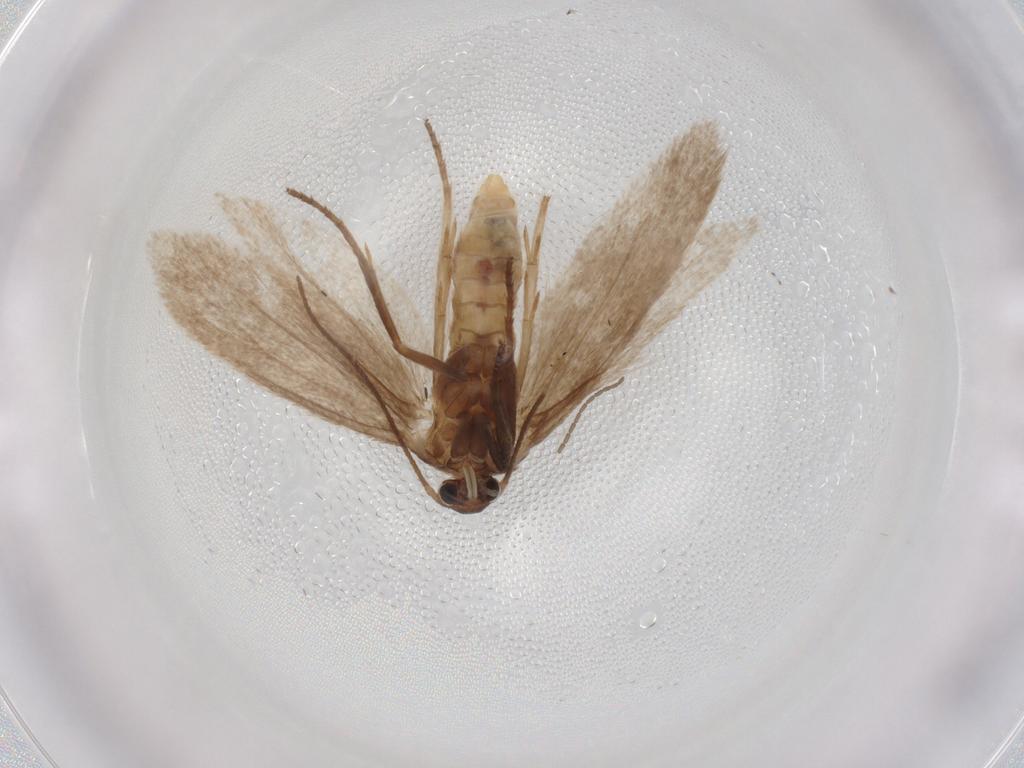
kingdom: Animalia
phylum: Arthropoda
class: Insecta
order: Lepidoptera
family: Limacodidae
